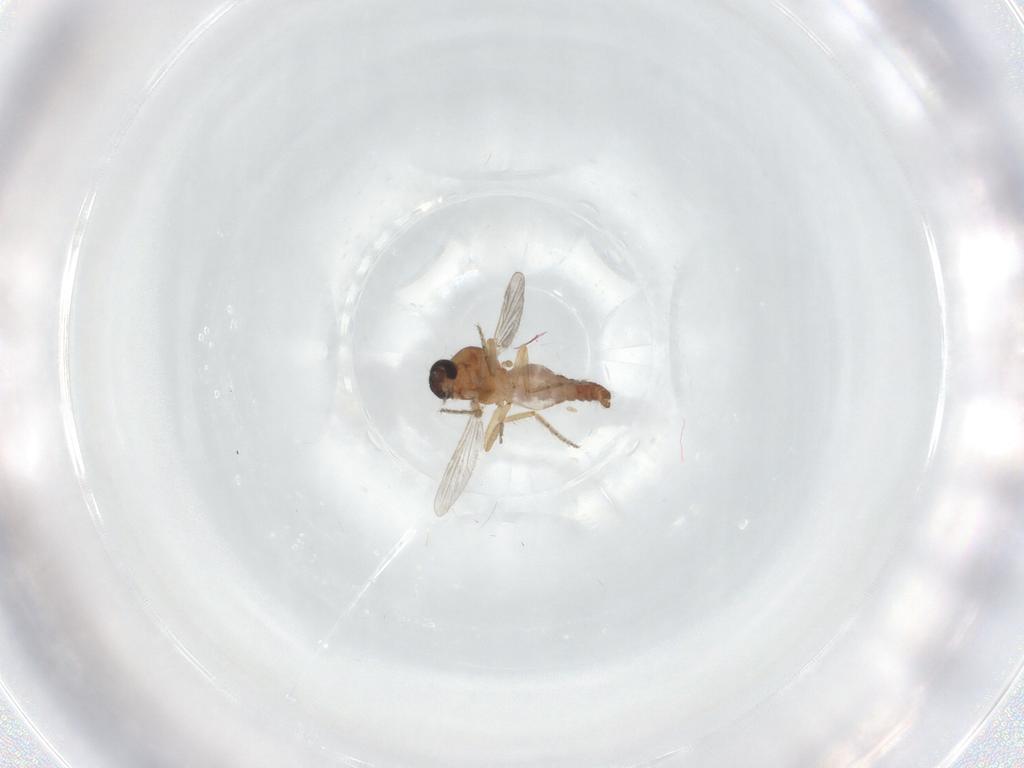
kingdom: Animalia
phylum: Arthropoda
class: Insecta
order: Diptera
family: Ceratopogonidae
